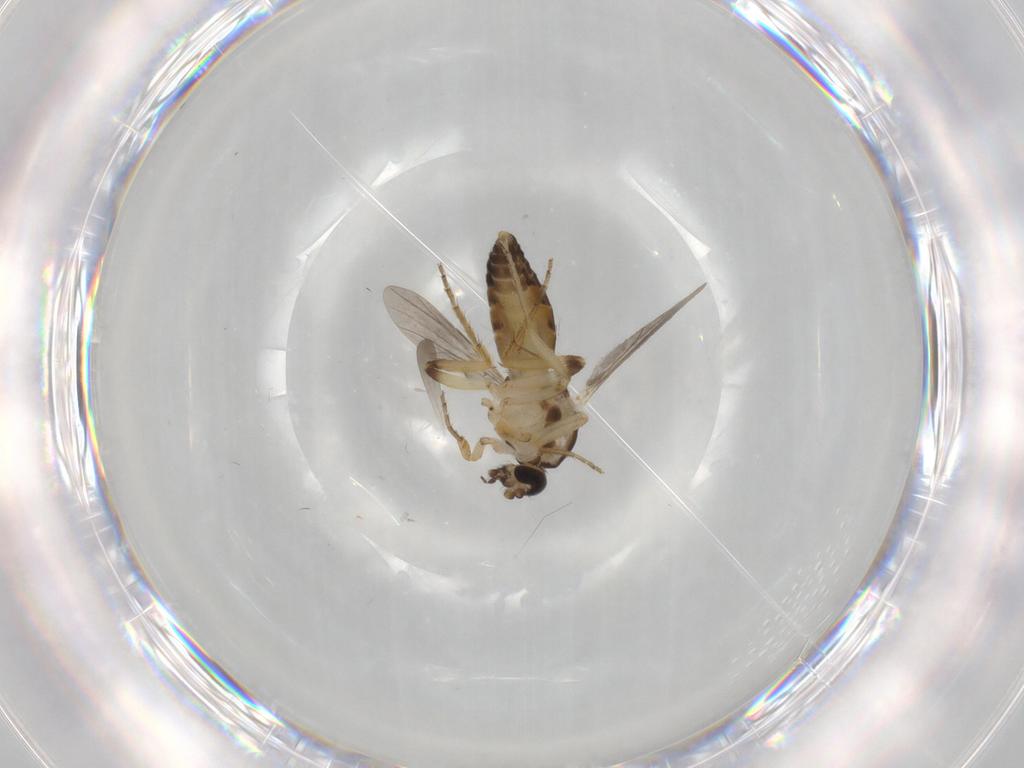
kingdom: Animalia
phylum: Arthropoda
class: Insecta
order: Diptera
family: Ceratopogonidae
